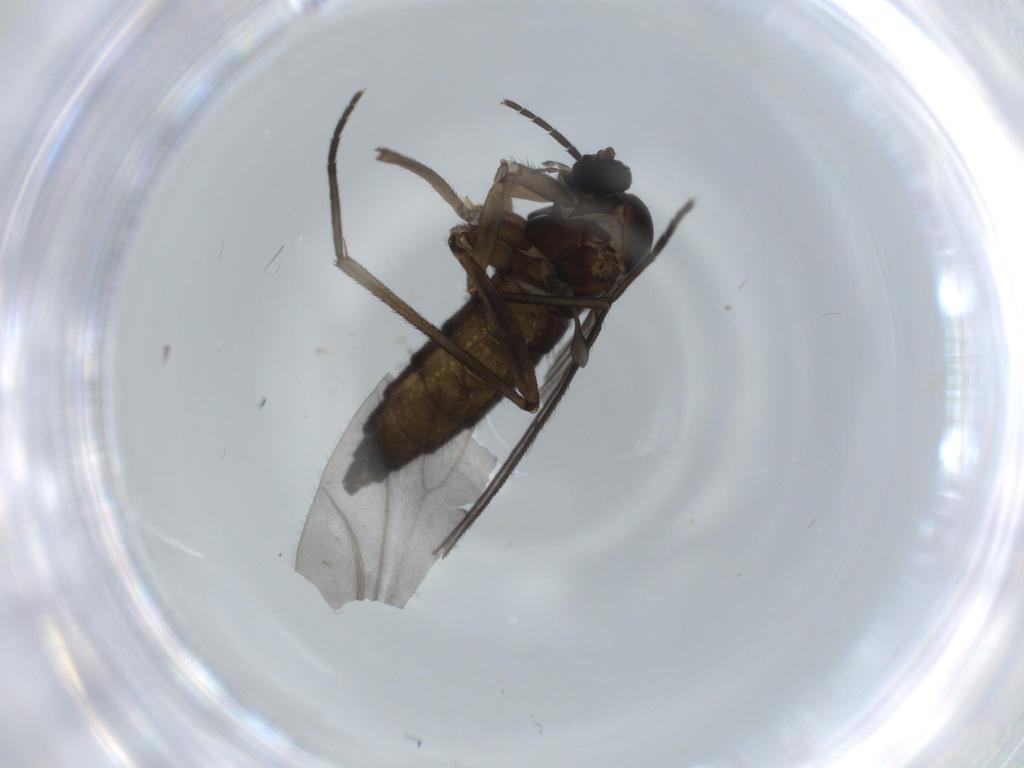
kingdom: Animalia
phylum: Arthropoda
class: Insecta
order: Diptera
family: Sciaridae
